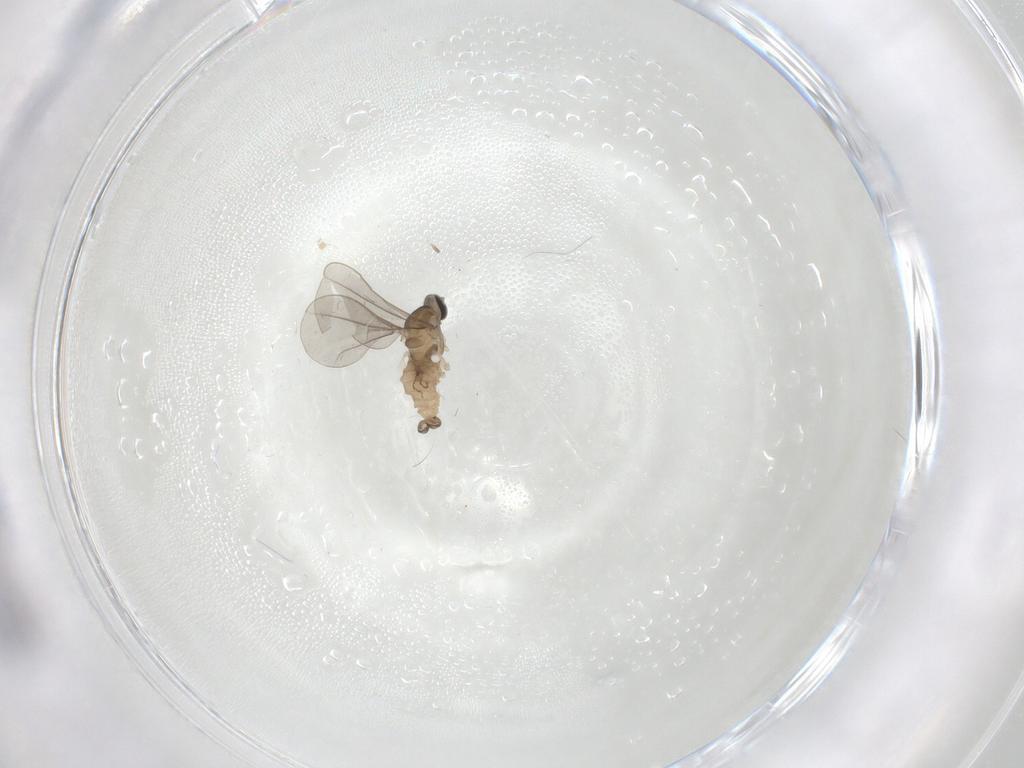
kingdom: Animalia
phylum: Arthropoda
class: Insecta
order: Diptera
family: Cecidomyiidae
